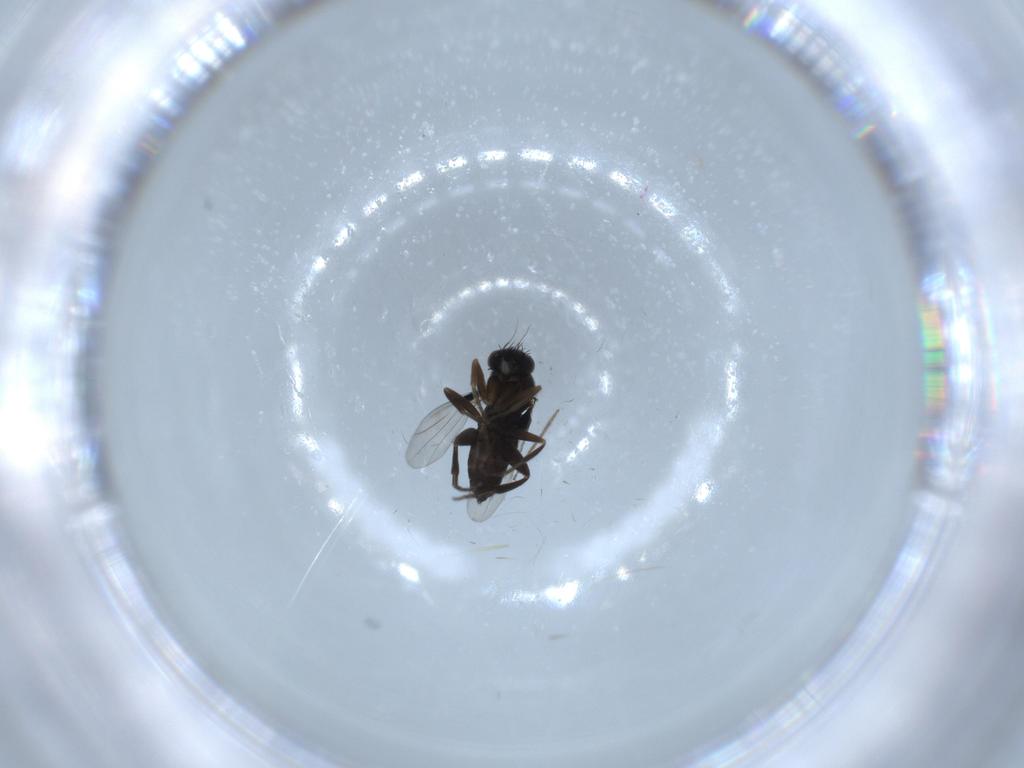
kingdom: Animalia
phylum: Arthropoda
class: Insecta
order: Diptera
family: Phoridae
